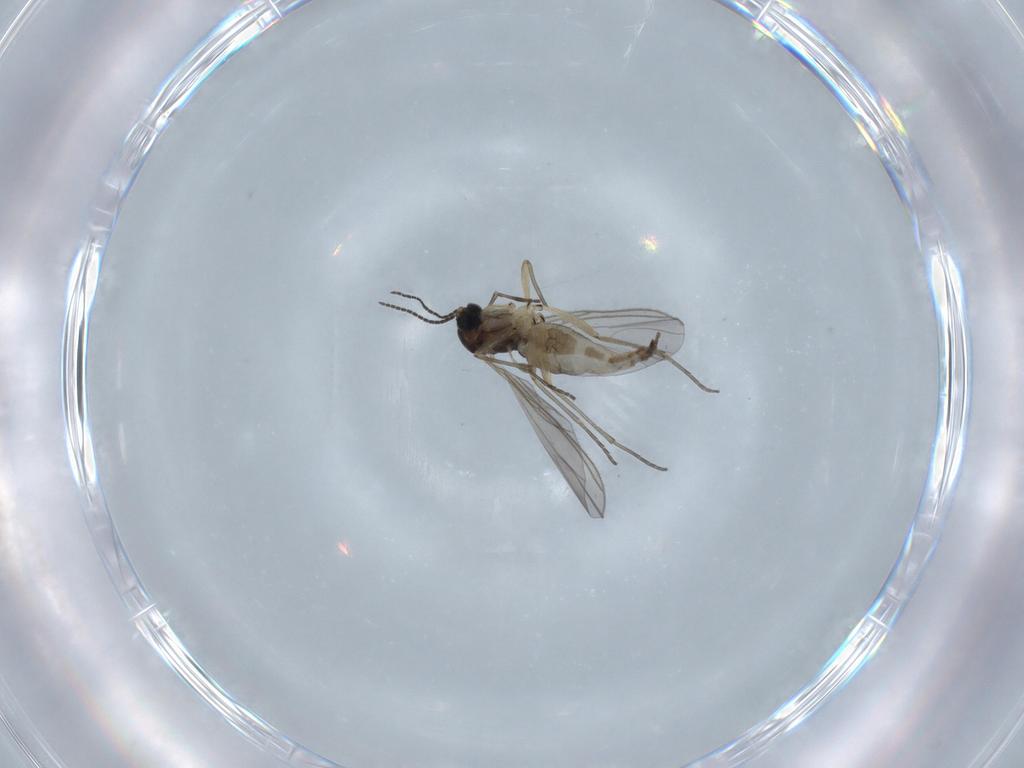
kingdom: Animalia
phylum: Arthropoda
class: Insecta
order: Diptera
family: Sciaridae
